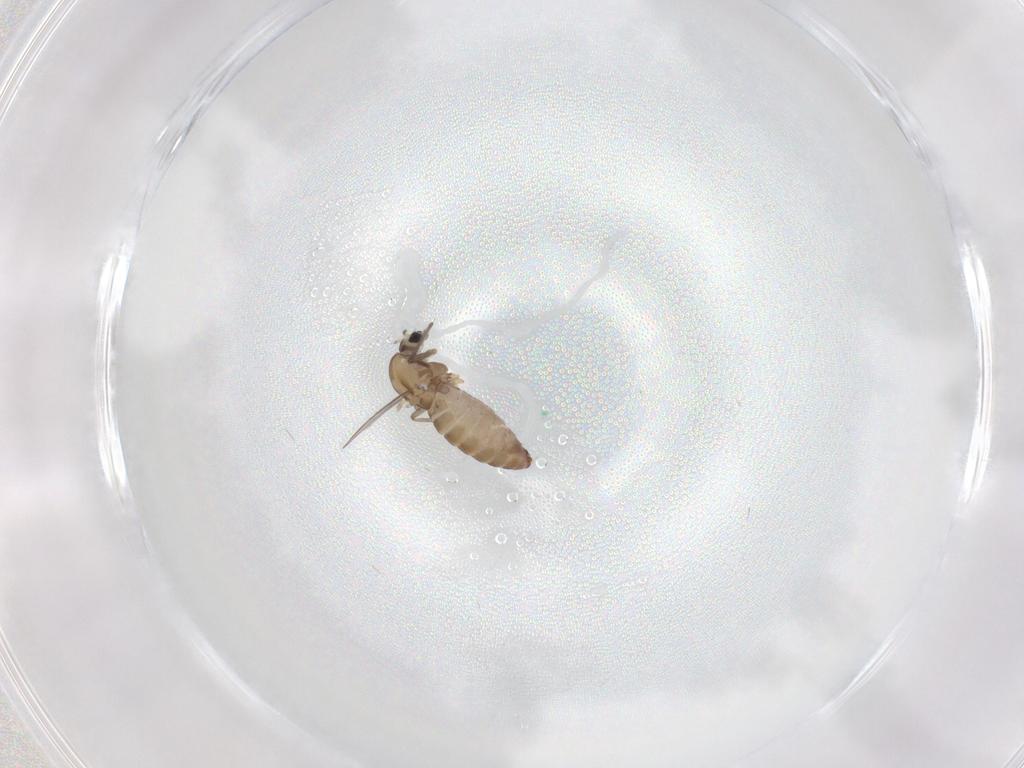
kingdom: Animalia
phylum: Arthropoda
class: Insecta
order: Diptera
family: Chironomidae
